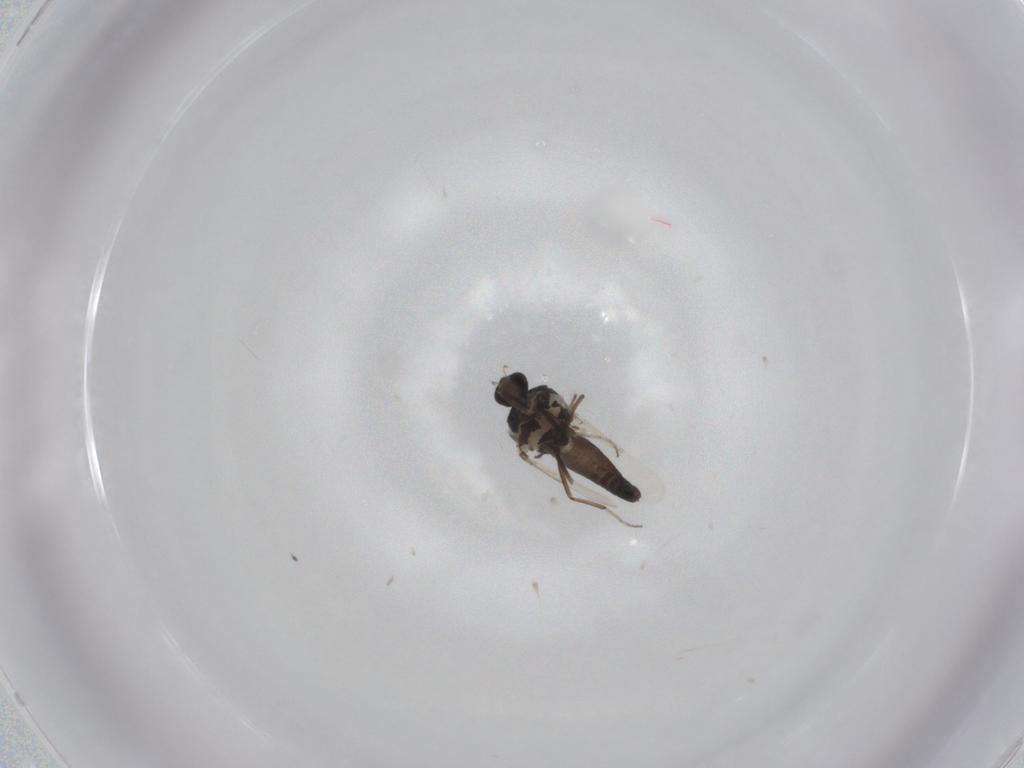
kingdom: Animalia
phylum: Arthropoda
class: Insecta
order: Diptera
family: Ceratopogonidae
